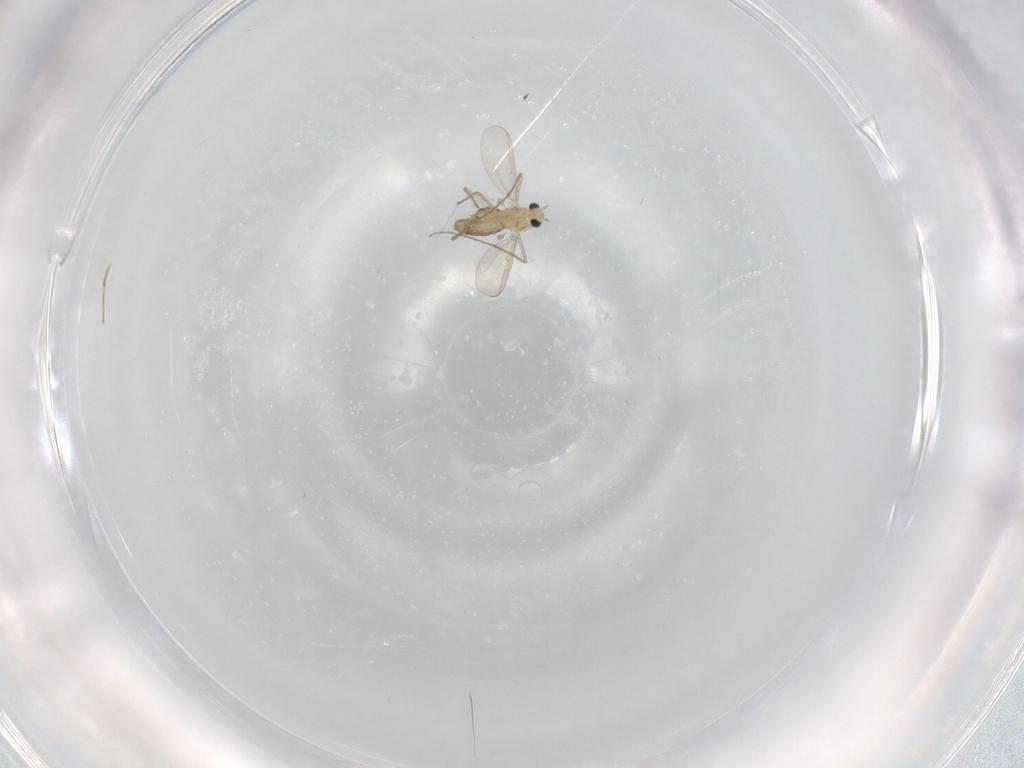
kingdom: Animalia
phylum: Arthropoda
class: Insecta
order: Diptera
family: Chironomidae
